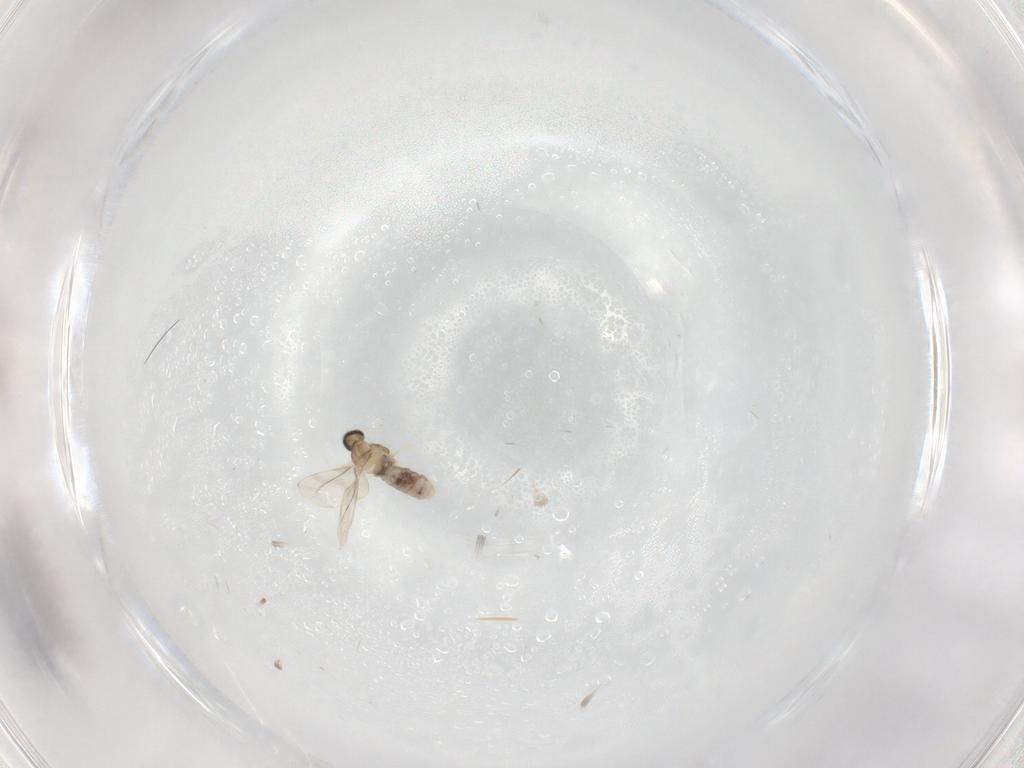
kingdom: Animalia
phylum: Arthropoda
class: Insecta
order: Diptera
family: Cecidomyiidae
